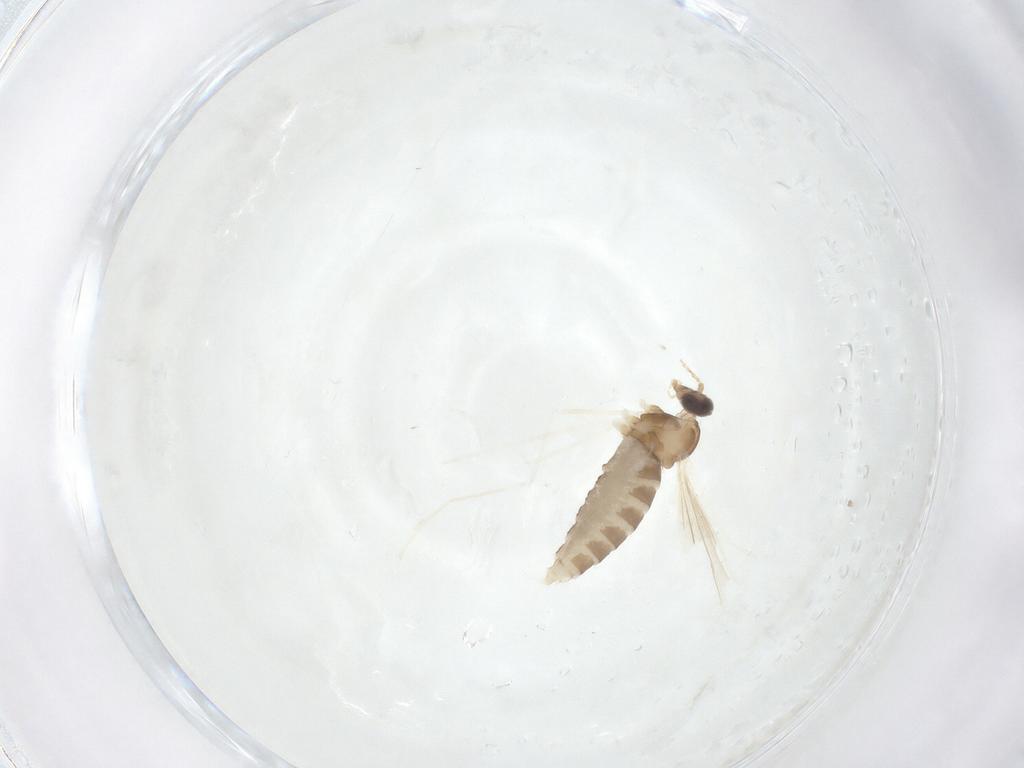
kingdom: Animalia
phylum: Arthropoda
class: Insecta
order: Diptera
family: Cecidomyiidae
